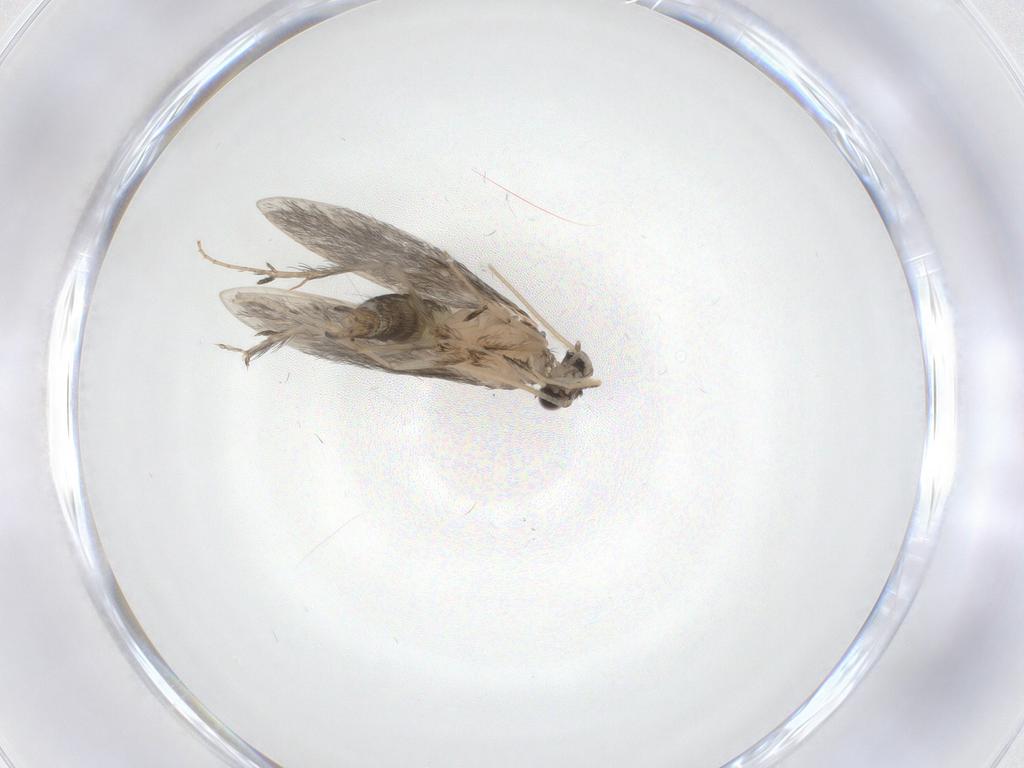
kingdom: Animalia
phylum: Arthropoda
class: Insecta
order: Trichoptera
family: Hydroptilidae
